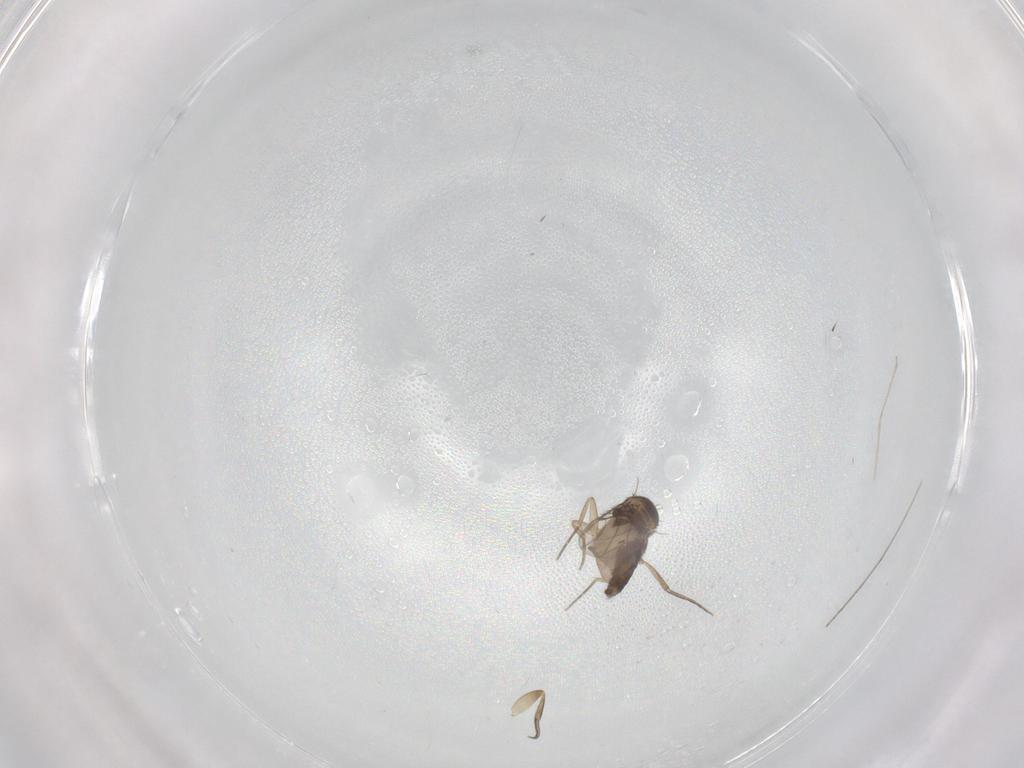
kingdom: Animalia
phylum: Arthropoda
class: Insecta
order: Diptera
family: Phoridae
